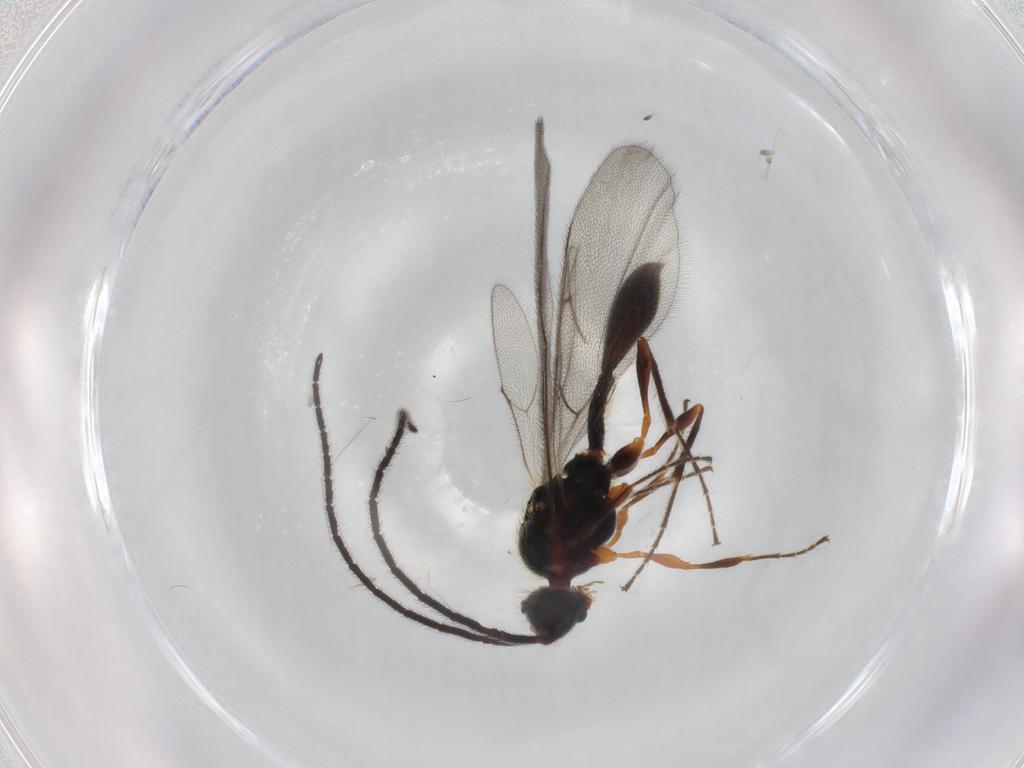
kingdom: Animalia
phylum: Arthropoda
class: Insecta
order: Hymenoptera
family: Diapriidae
